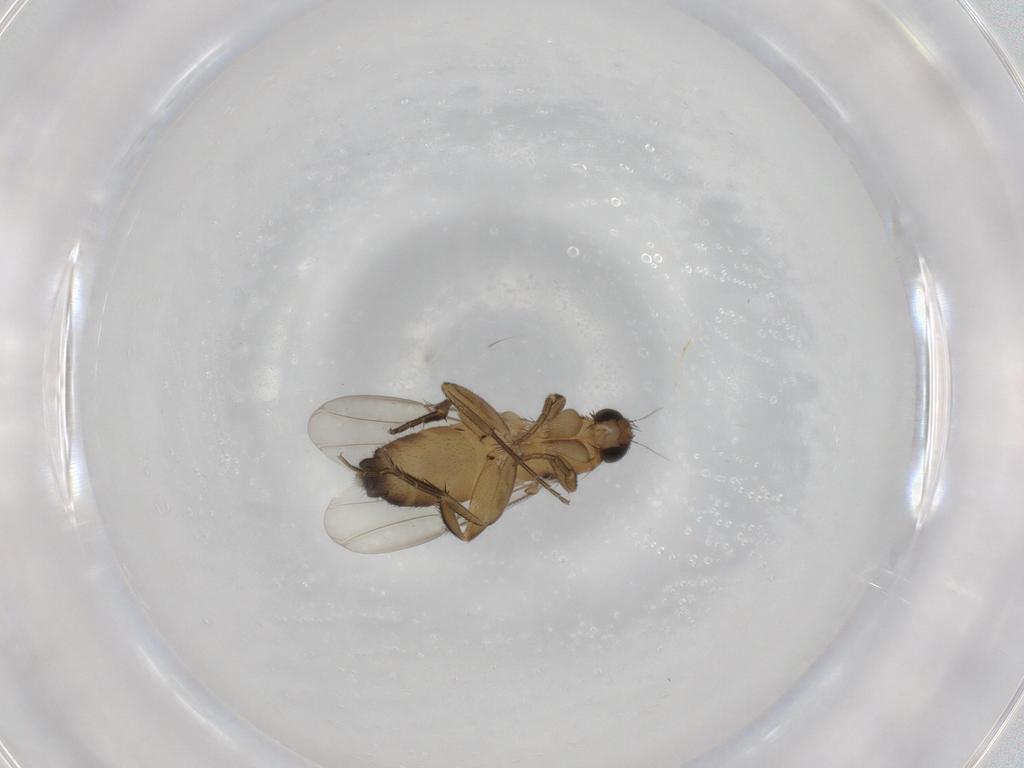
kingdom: Animalia
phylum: Arthropoda
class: Insecta
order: Diptera
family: Phoridae
